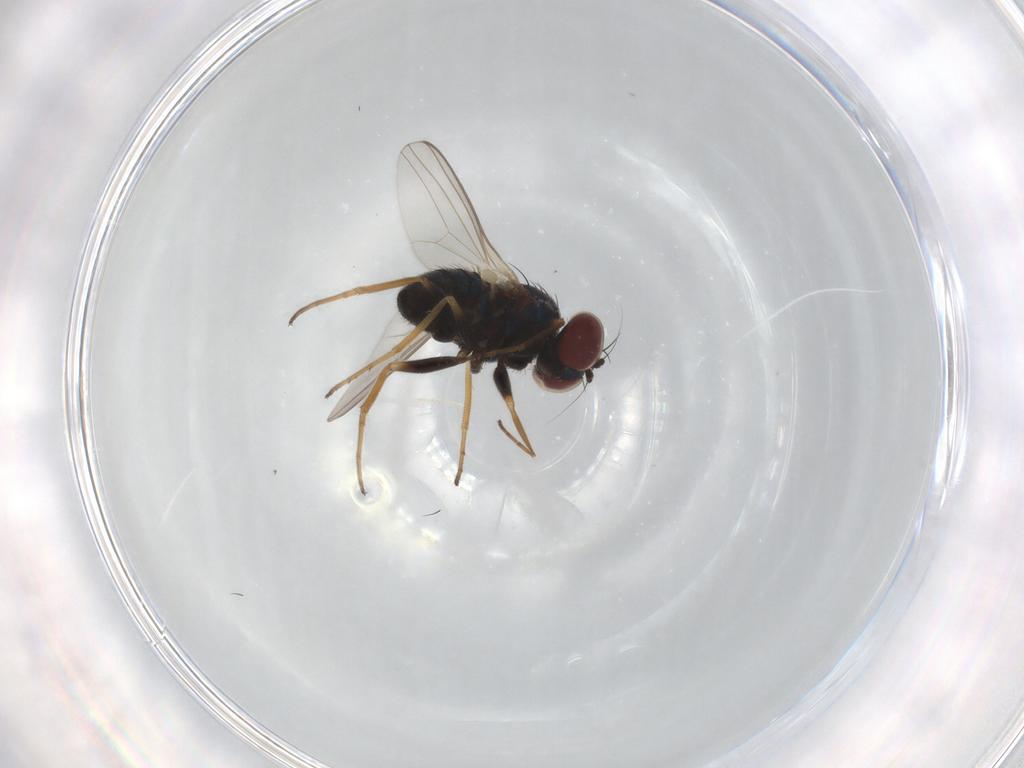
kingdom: Animalia
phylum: Arthropoda
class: Insecta
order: Diptera
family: Dolichopodidae
